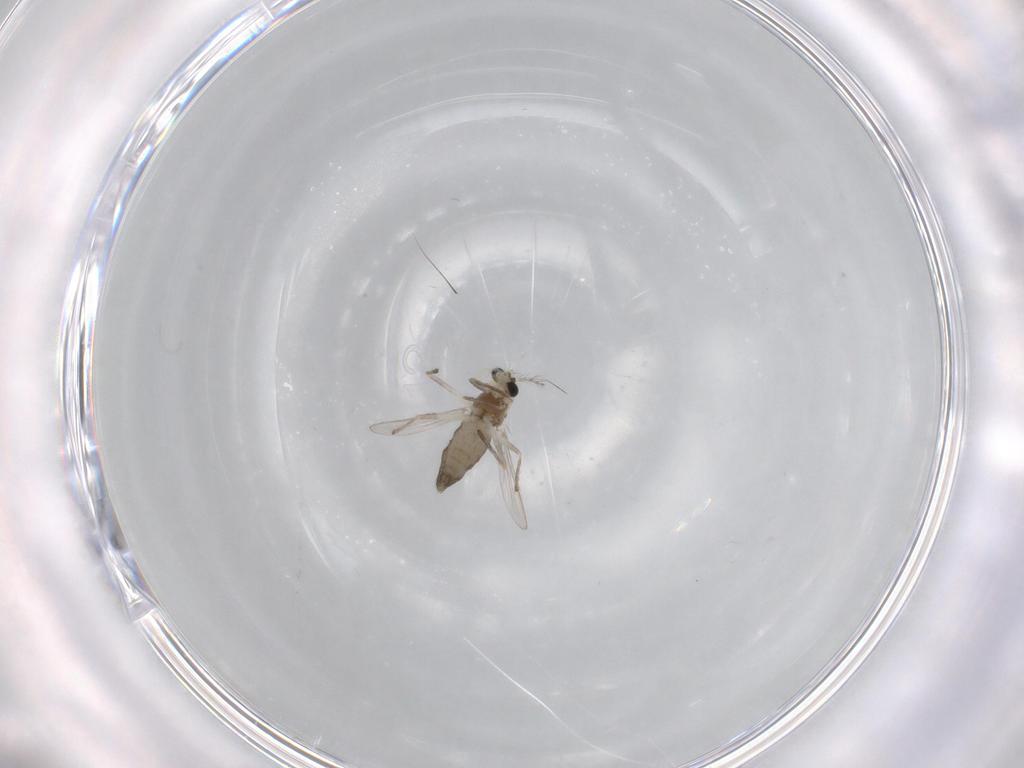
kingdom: Animalia
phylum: Arthropoda
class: Insecta
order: Diptera
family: Chironomidae
